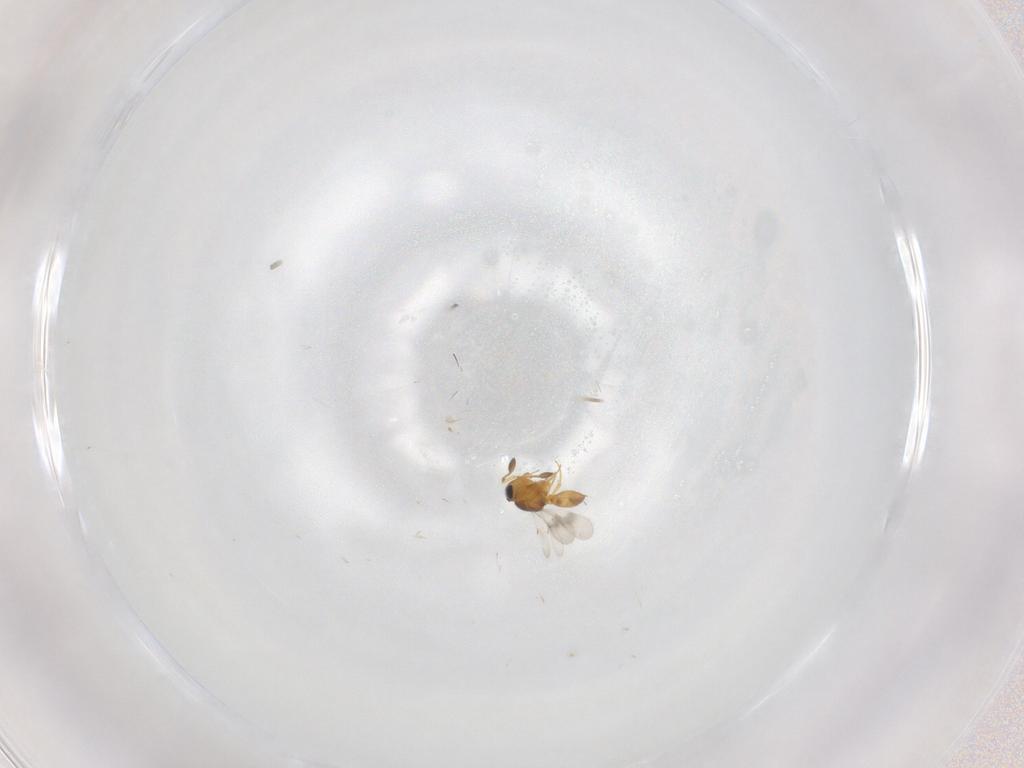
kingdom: Animalia
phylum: Arthropoda
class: Insecta
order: Hymenoptera
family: Scelionidae
